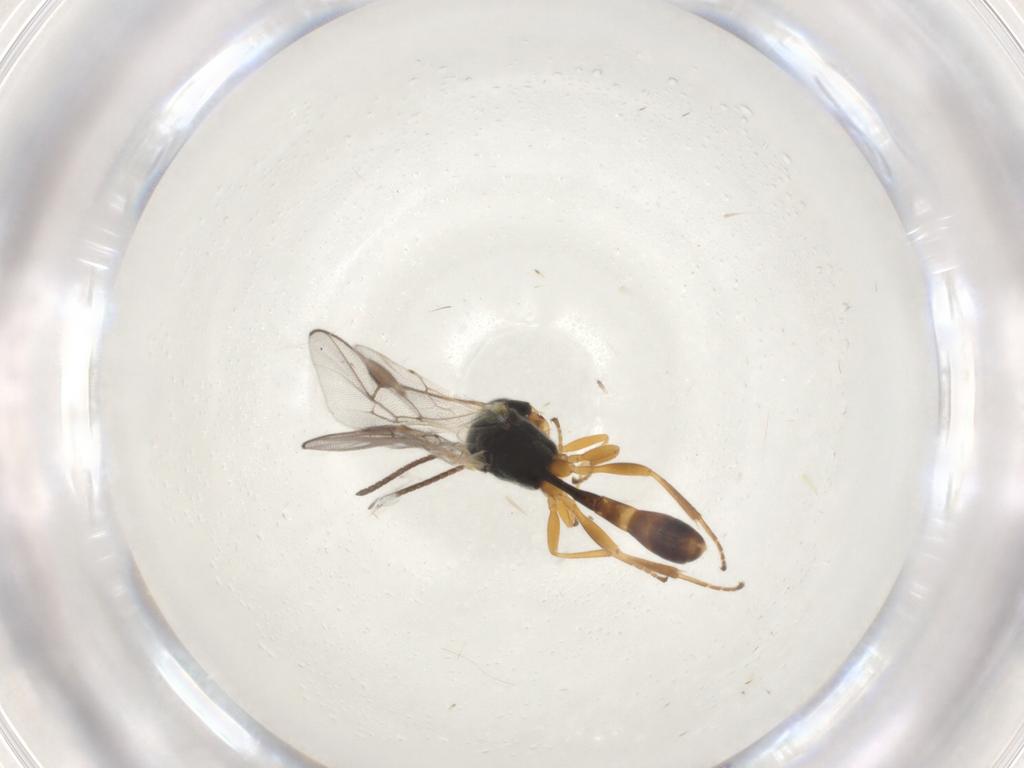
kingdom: Animalia
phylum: Arthropoda
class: Insecta
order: Hymenoptera
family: Ichneumonidae
